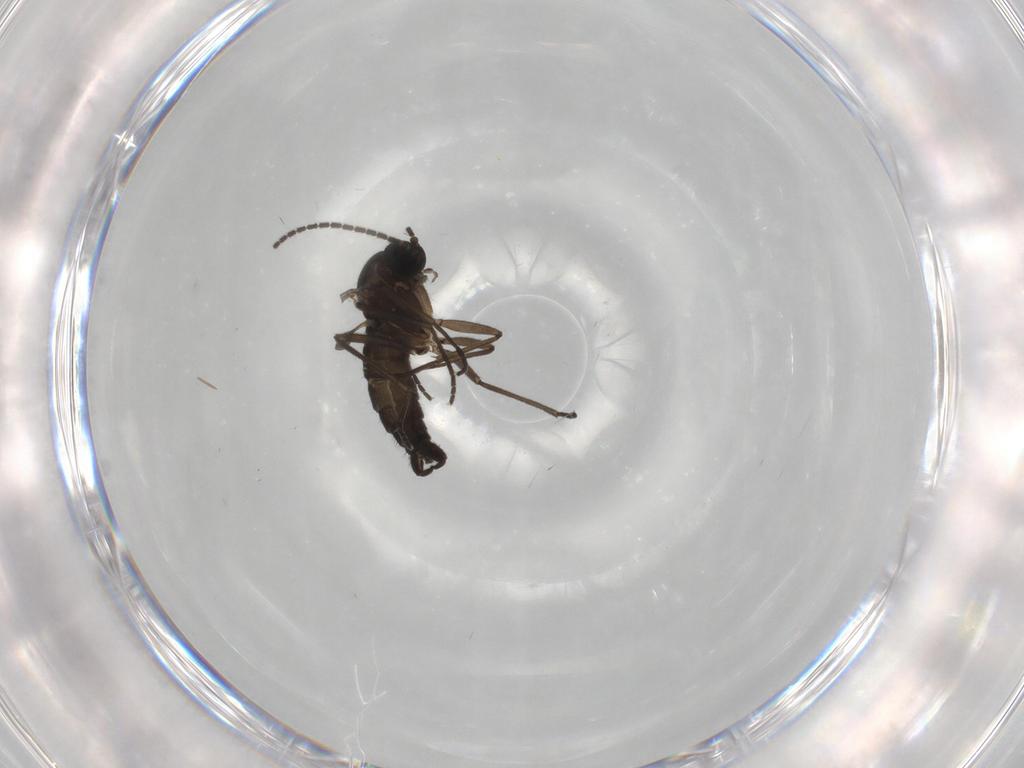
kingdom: Animalia
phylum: Arthropoda
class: Insecta
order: Diptera
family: Sciaridae
